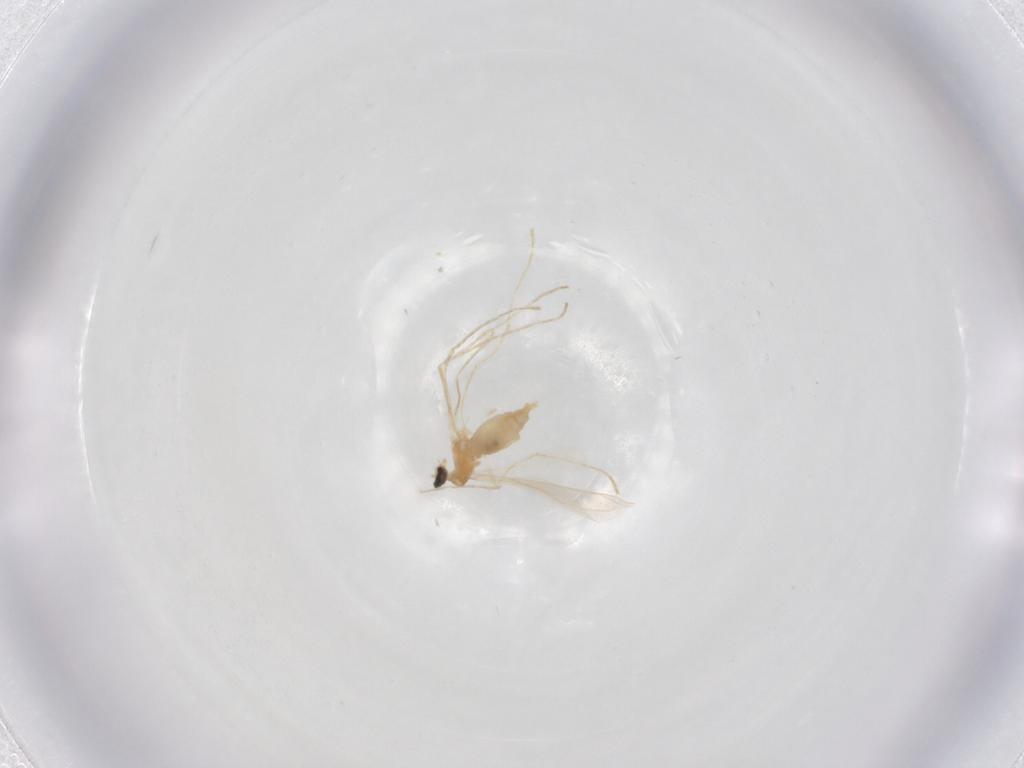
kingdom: Animalia
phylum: Arthropoda
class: Insecta
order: Diptera
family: Cecidomyiidae
